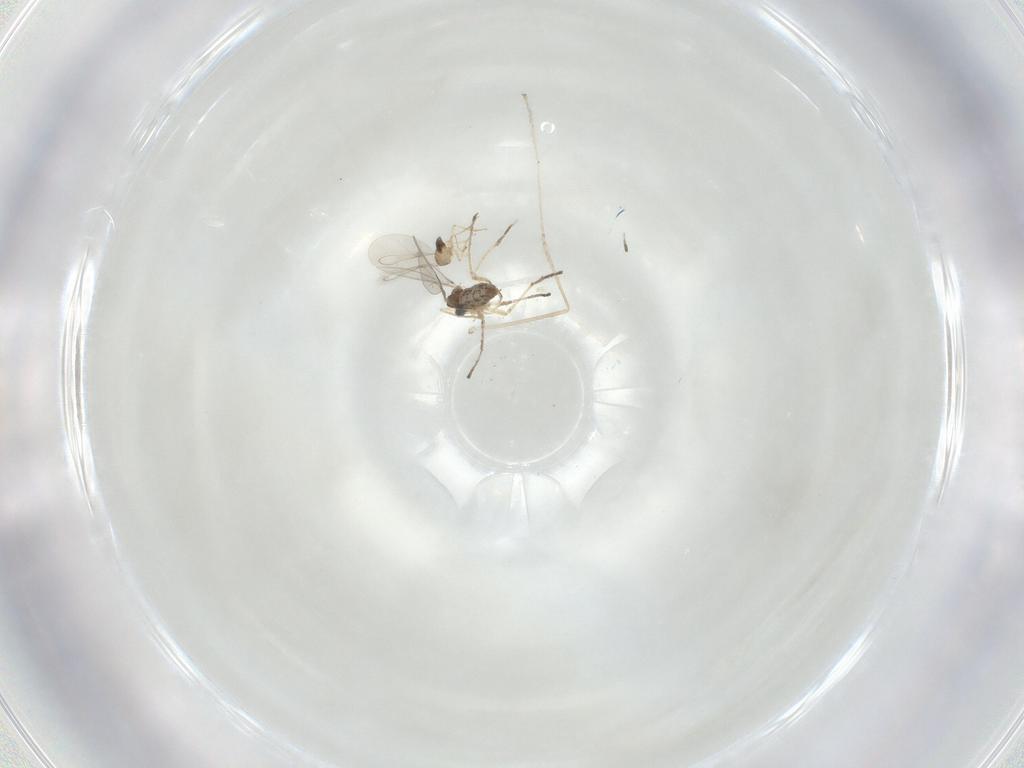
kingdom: Animalia
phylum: Arthropoda
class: Insecta
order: Diptera
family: Cecidomyiidae
